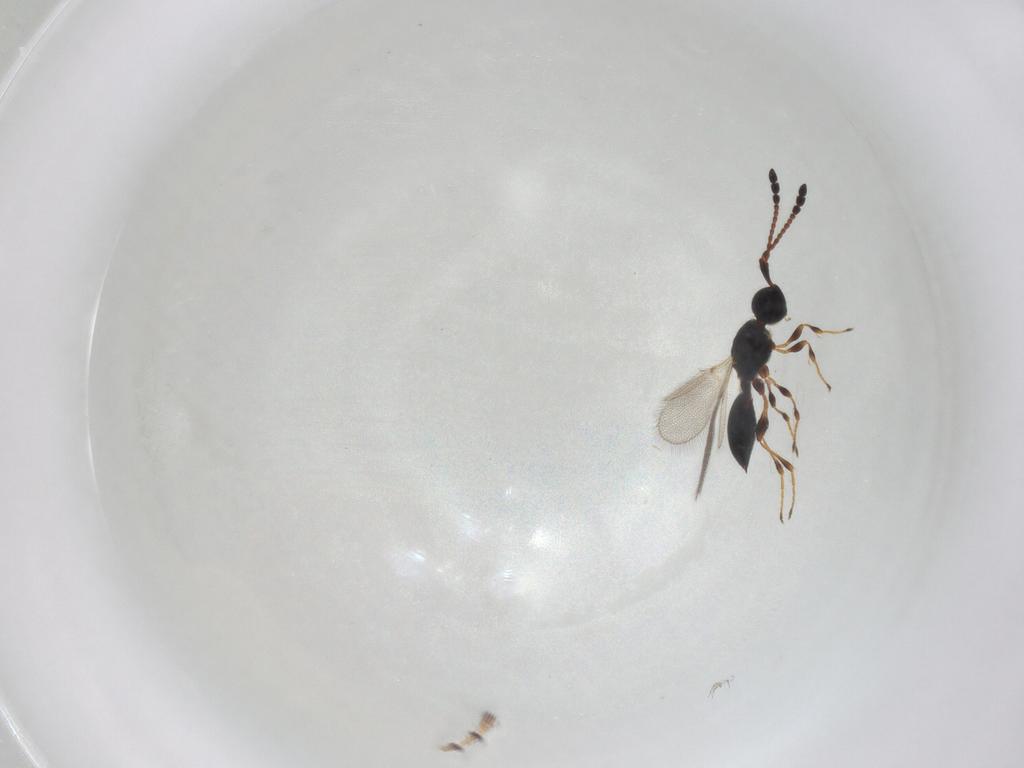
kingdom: Animalia
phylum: Arthropoda
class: Insecta
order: Hymenoptera
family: Diapriidae
